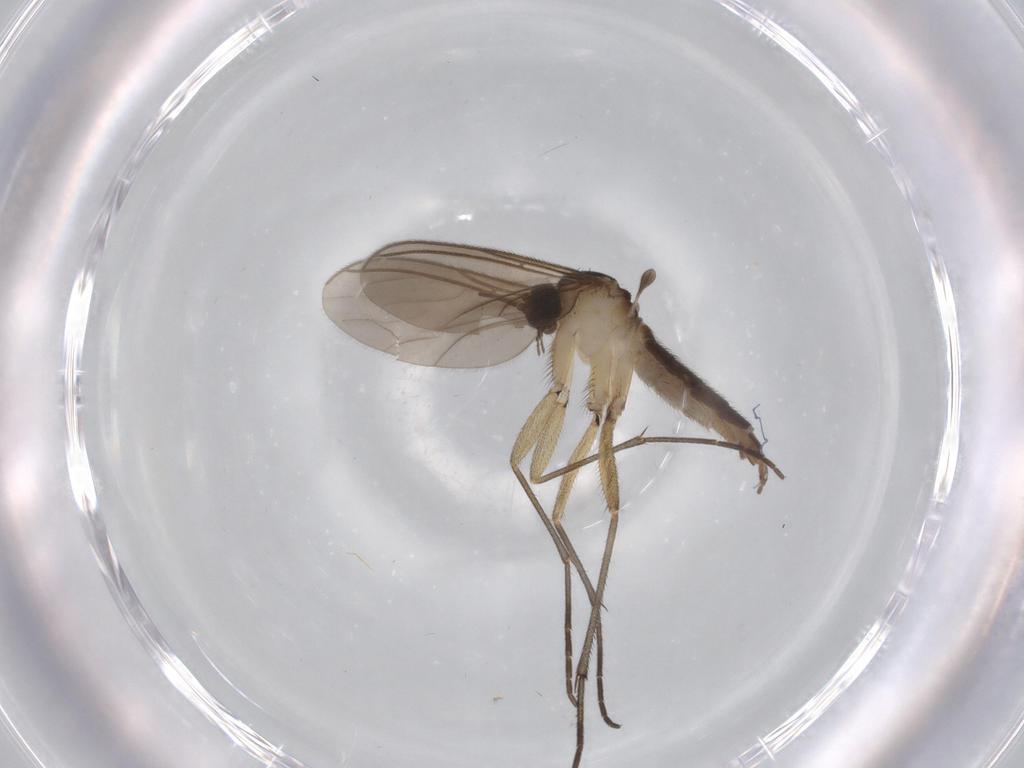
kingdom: Animalia
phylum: Arthropoda
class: Insecta
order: Diptera
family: Sciaridae
